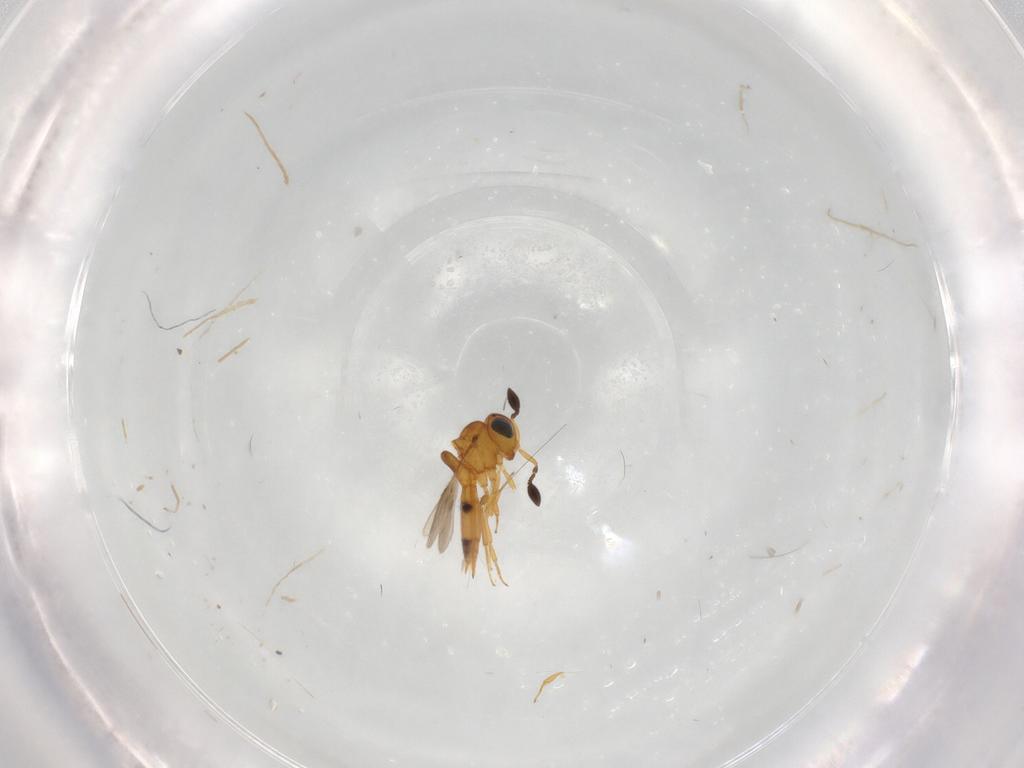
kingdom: Animalia
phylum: Arthropoda
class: Insecta
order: Hymenoptera
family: Scelionidae
